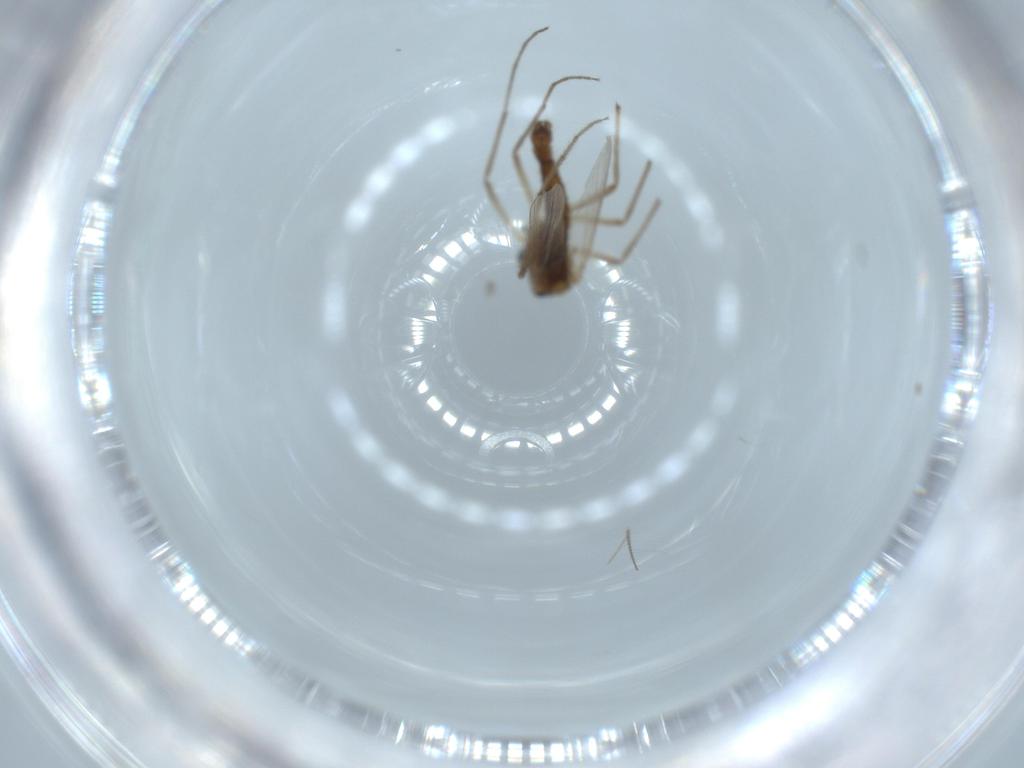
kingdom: Animalia
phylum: Arthropoda
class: Insecta
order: Diptera
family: Chironomidae
